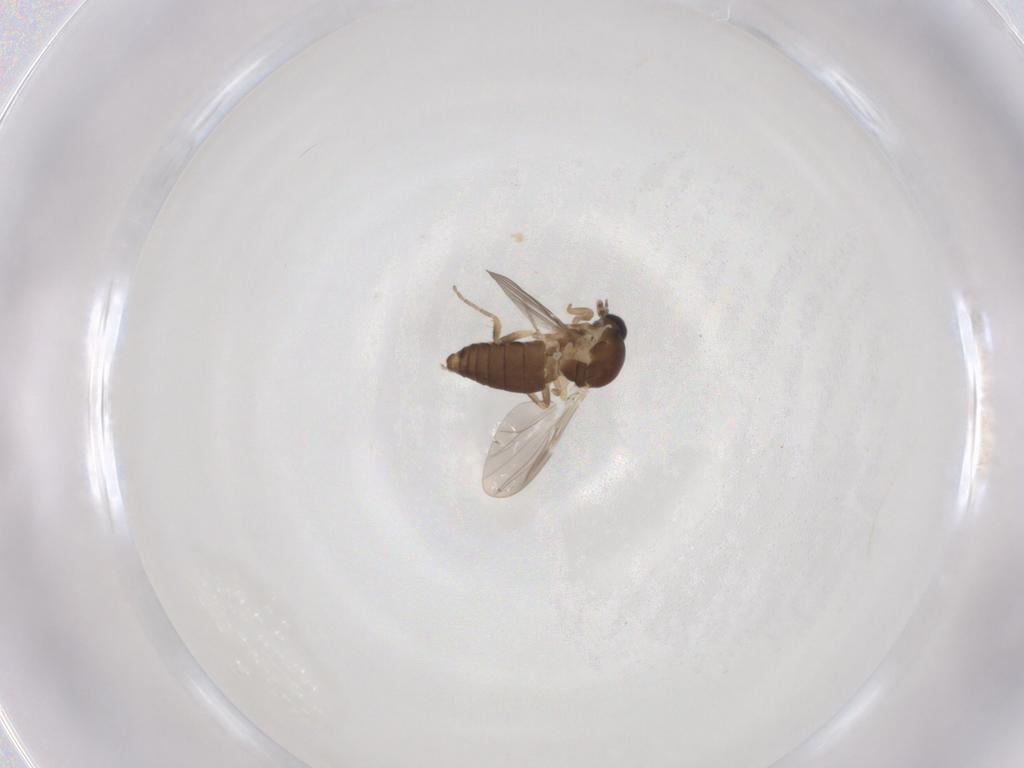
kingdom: Animalia
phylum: Arthropoda
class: Insecta
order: Diptera
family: Ceratopogonidae
